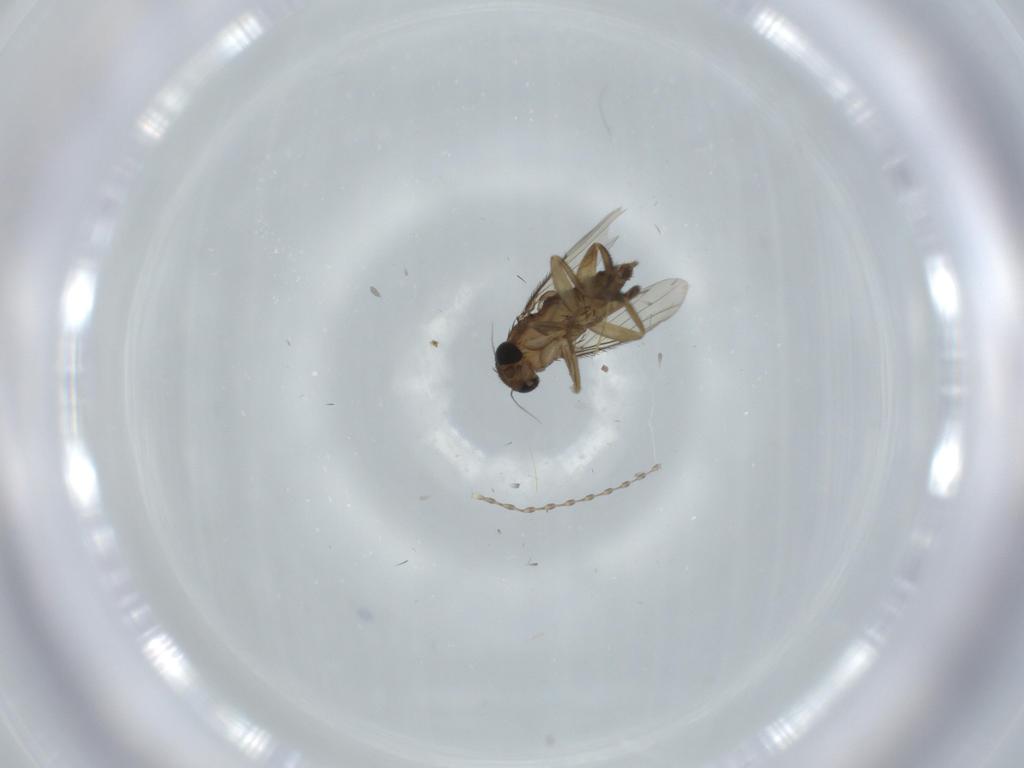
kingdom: Animalia
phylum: Arthropoda
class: Insecta
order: Diptera
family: Phoridae
